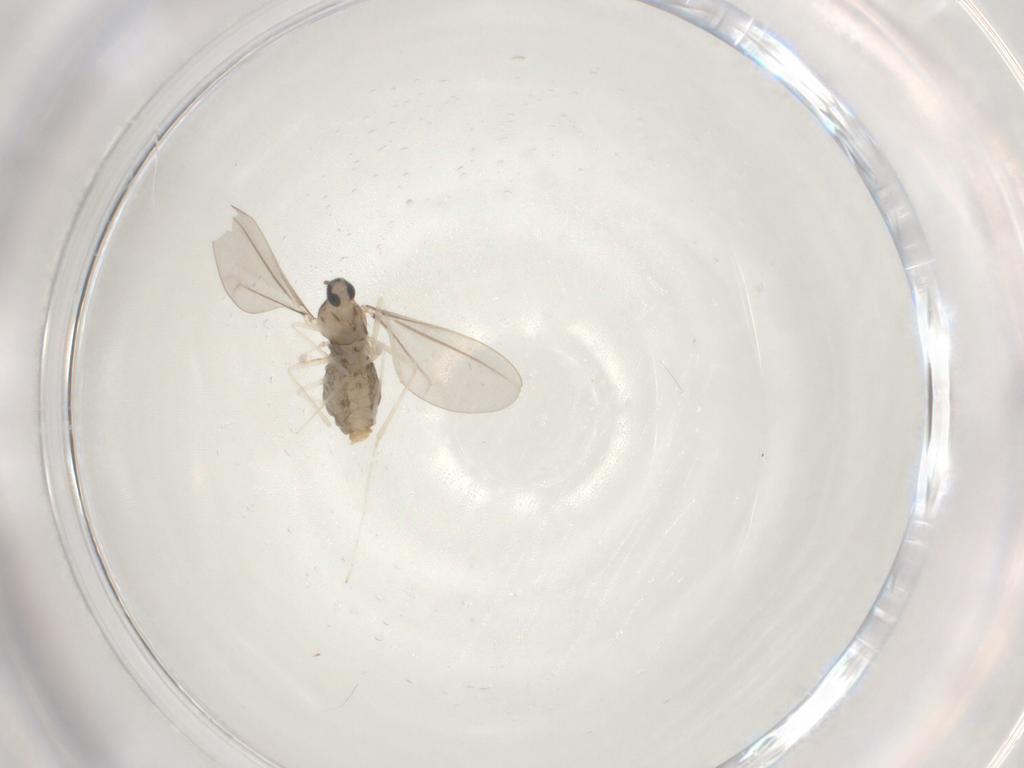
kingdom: Animalia
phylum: Arthropoda
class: Insecta
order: Diptera
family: Cecidomyiidae
